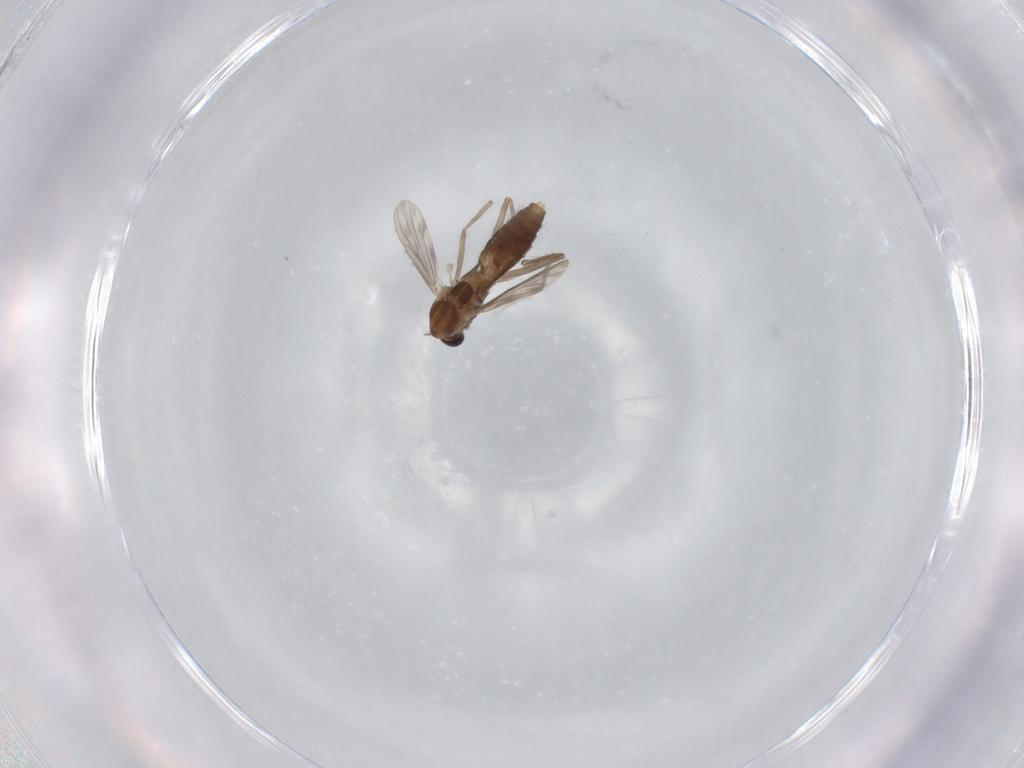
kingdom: Animalia
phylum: Arthropoda
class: Insecta
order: Diptera
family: Chironomidae
